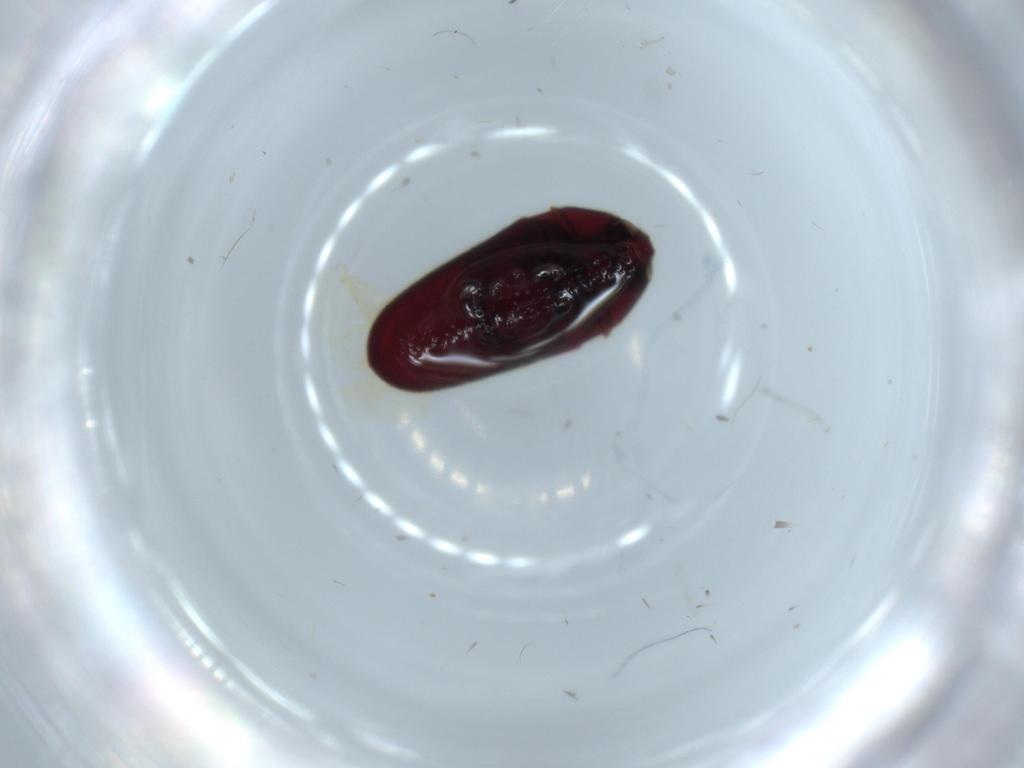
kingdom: Animalia
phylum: Arthropoda
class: Insecta
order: Coleoptera
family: Throscidae
